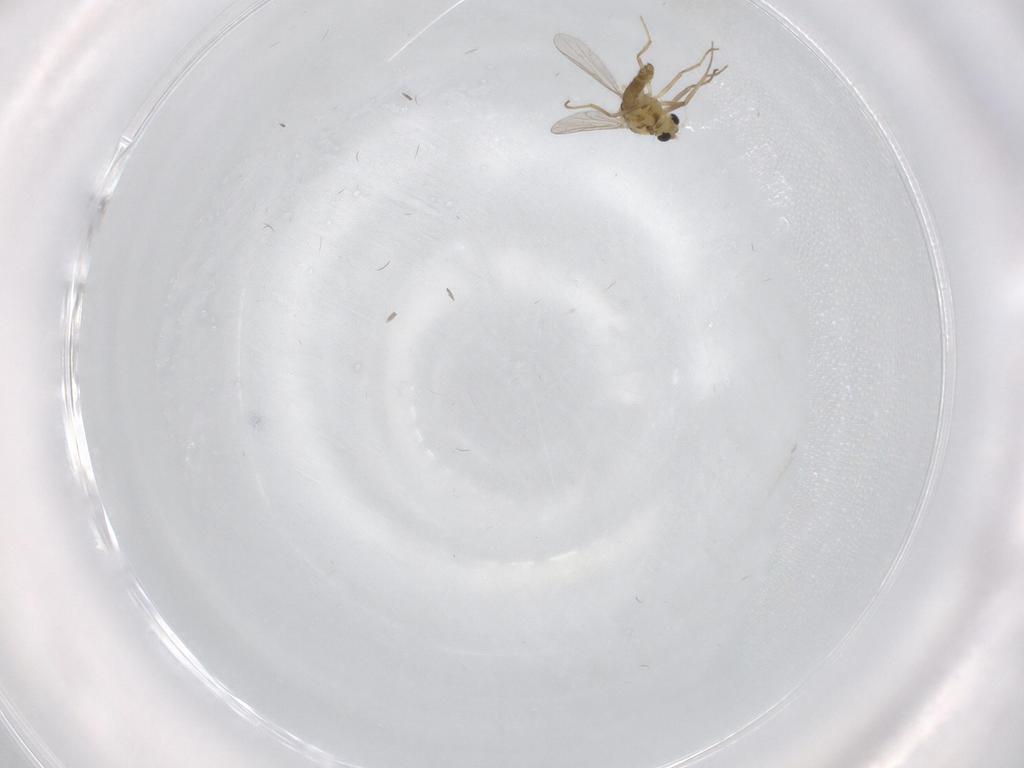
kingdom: Animalia
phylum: Arthropoda
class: Insecta
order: Diptera
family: Chironomidae
